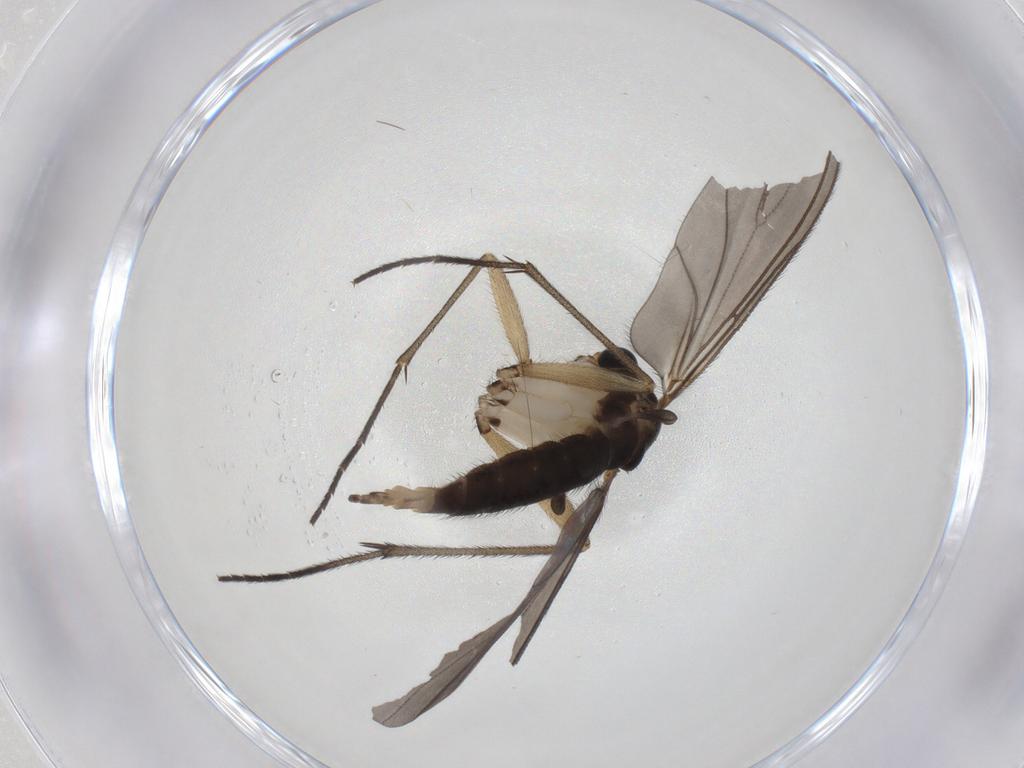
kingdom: Animalia
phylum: Arthropoda
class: Insecta
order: Diptera
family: Sciaridae
